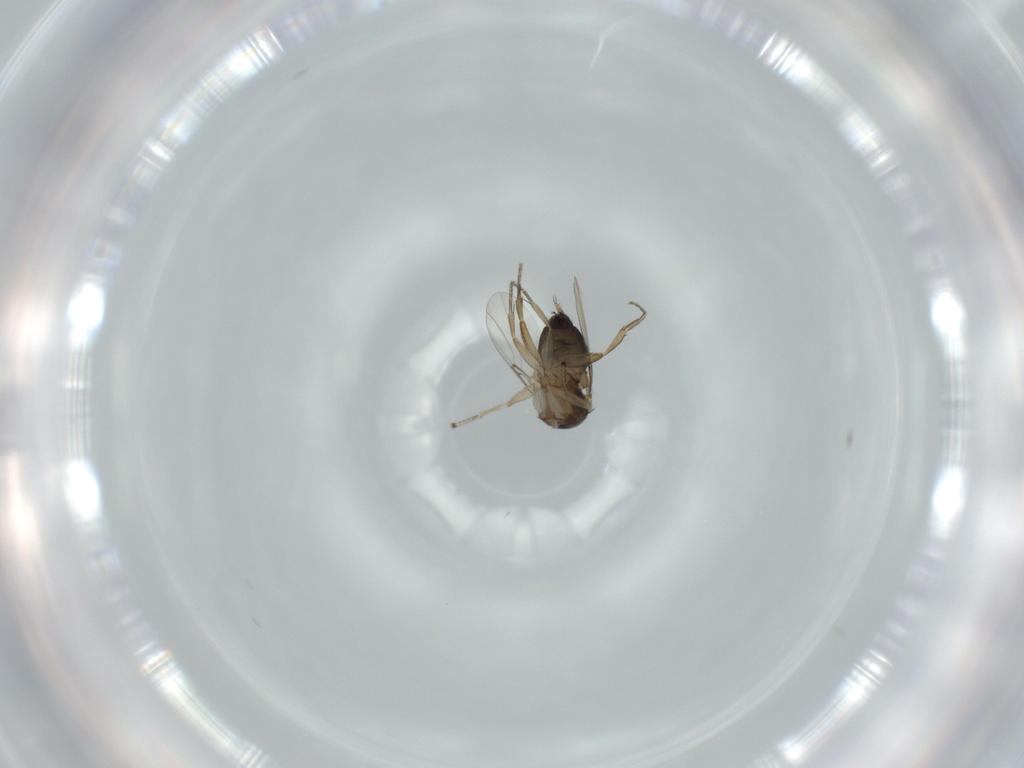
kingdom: Animalia
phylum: Arthropoda
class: Insecta
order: Diptera
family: Phoridae
